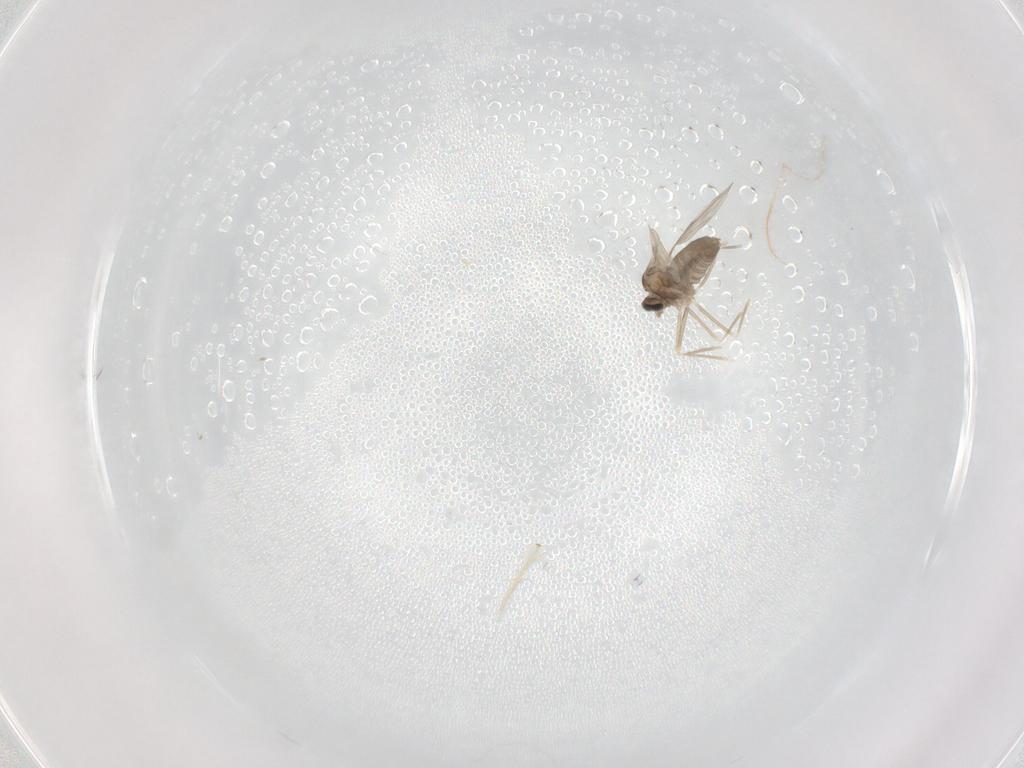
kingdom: Animalia
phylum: Arthropoda
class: Insecta
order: Diptera
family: Cecidomyiidae
